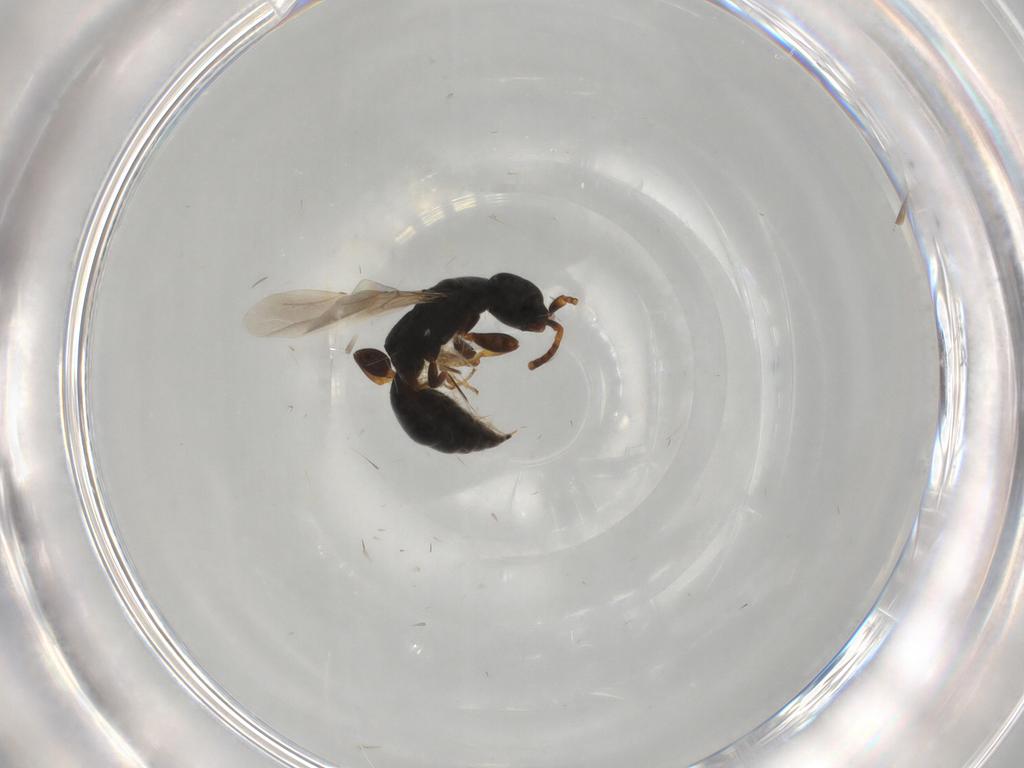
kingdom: Animalia
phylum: Arthropoda
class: Insecta
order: Hymenoptera
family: Bethylidae
